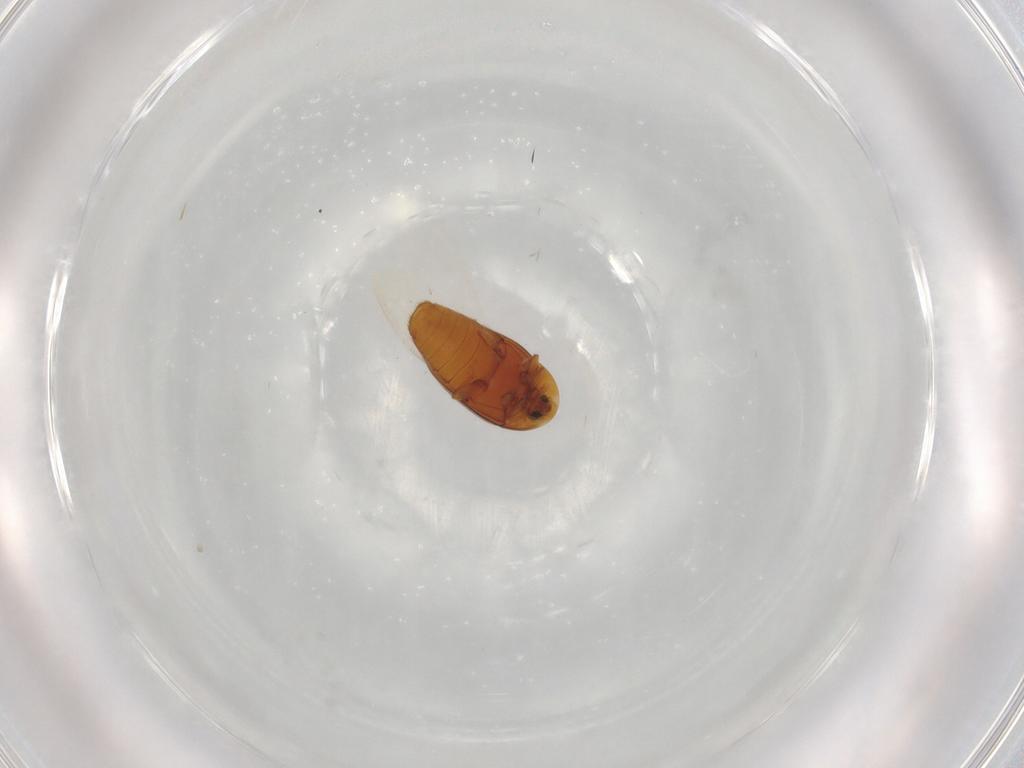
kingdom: Animalia
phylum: Arthropoda
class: Insecta
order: Coleoptera
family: Corylophidae
